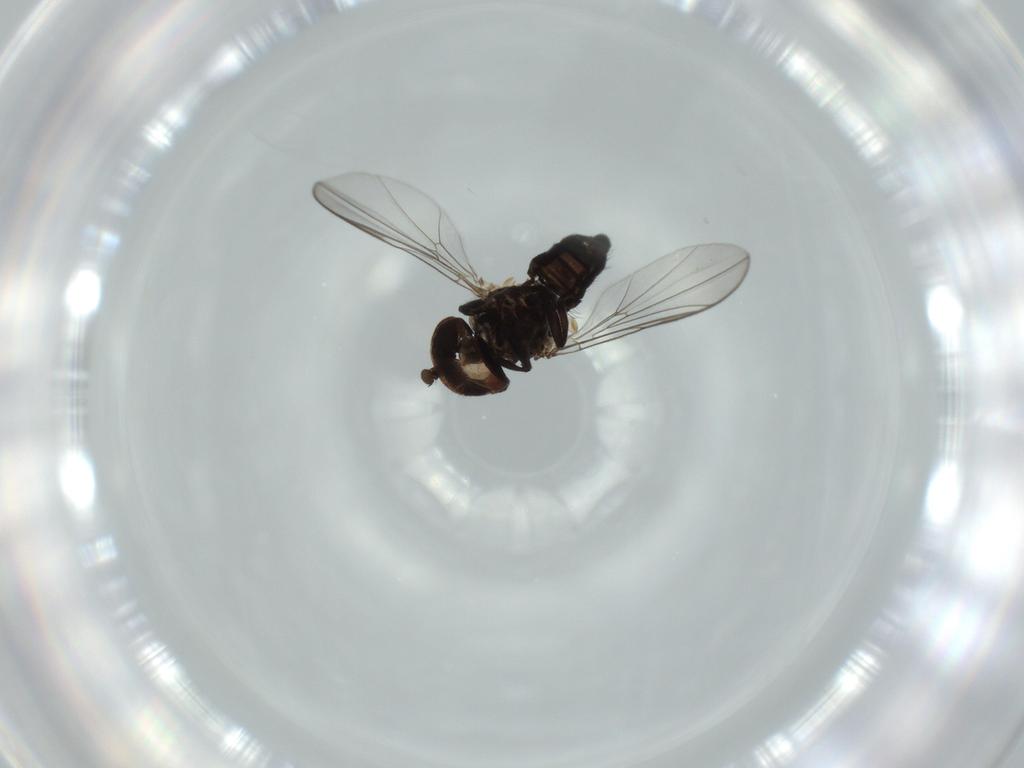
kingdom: Animalia
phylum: Arthropoda
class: Insecta
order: Diptera
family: Pipunculidae
